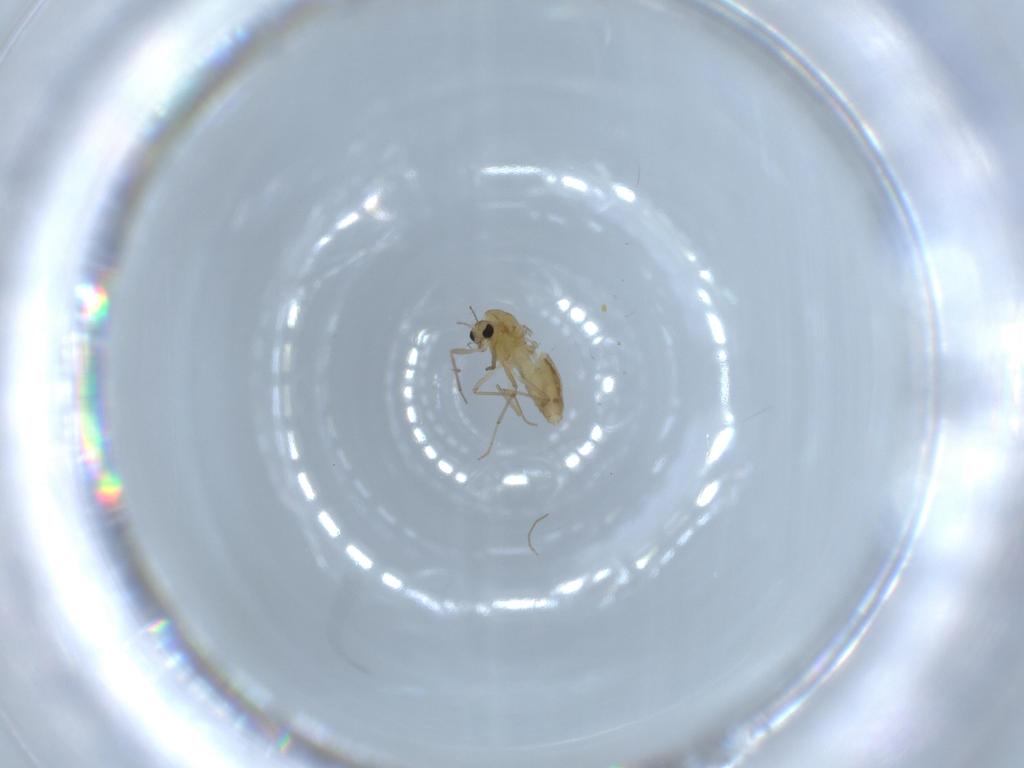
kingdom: Animalia
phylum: Arthropoda
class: Insecta
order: Diptera
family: Chironomidae
